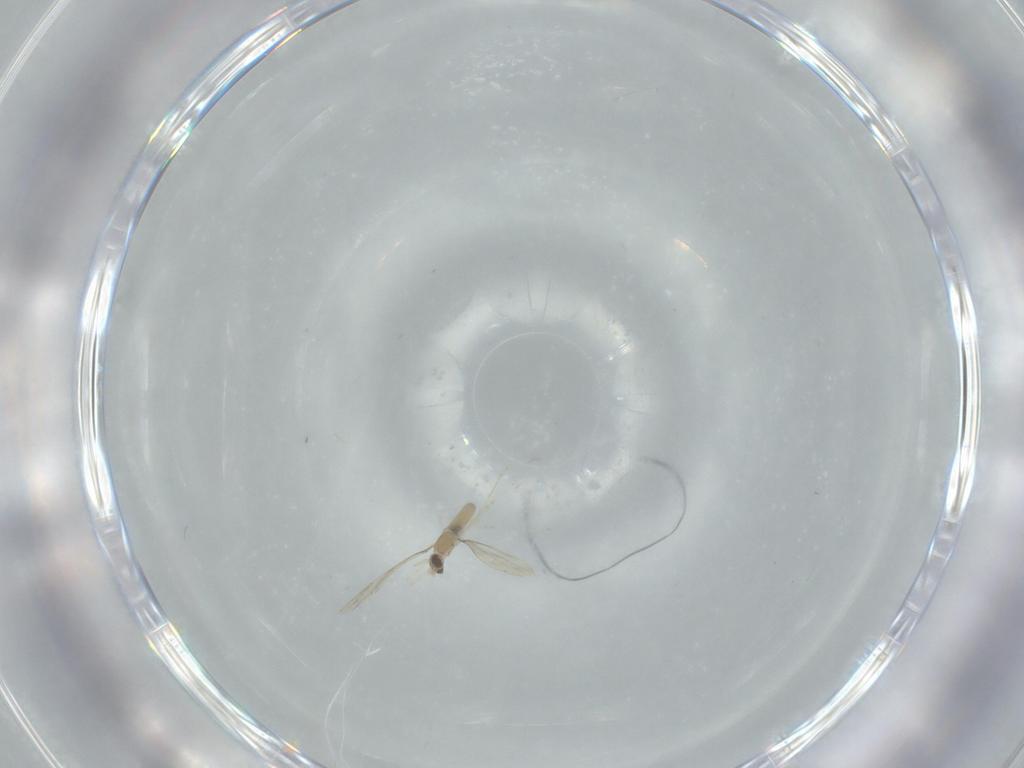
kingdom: Animalia
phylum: Arthropoda
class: Insecta
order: Diptera
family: Cecidomyiidae
